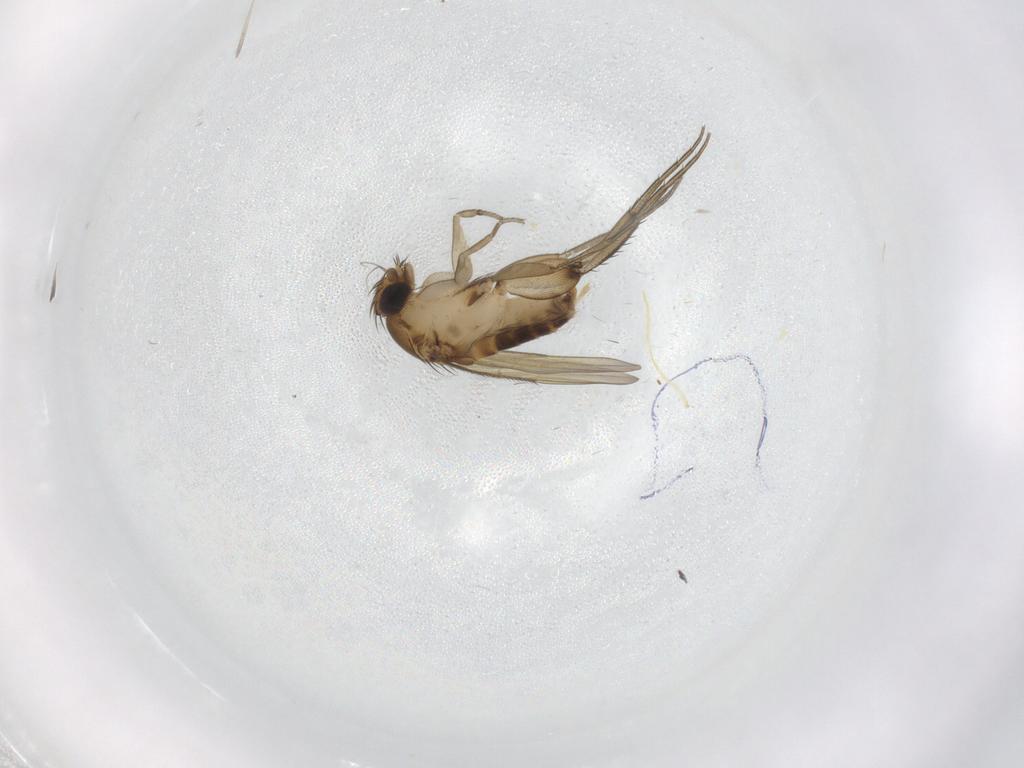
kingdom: Animalia
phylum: Arthropoda
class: Insecta
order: Diptera
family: Phoridae
